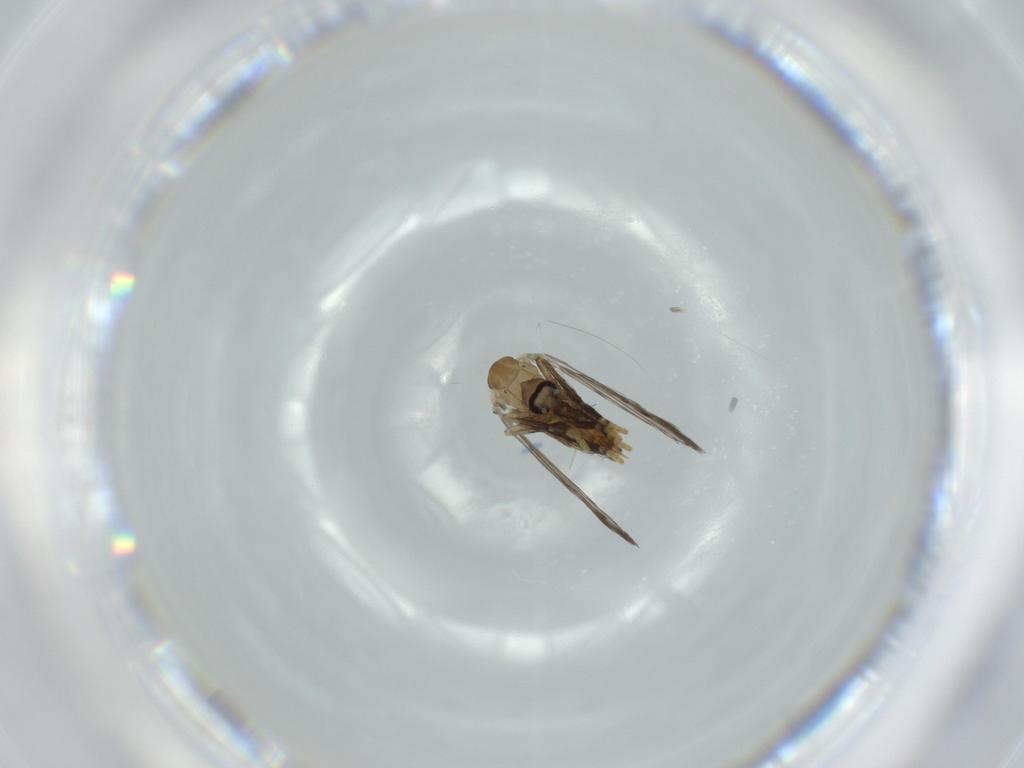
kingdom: Animalia
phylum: Arthropoda
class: Insecta
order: Diptera
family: Psychodidae
